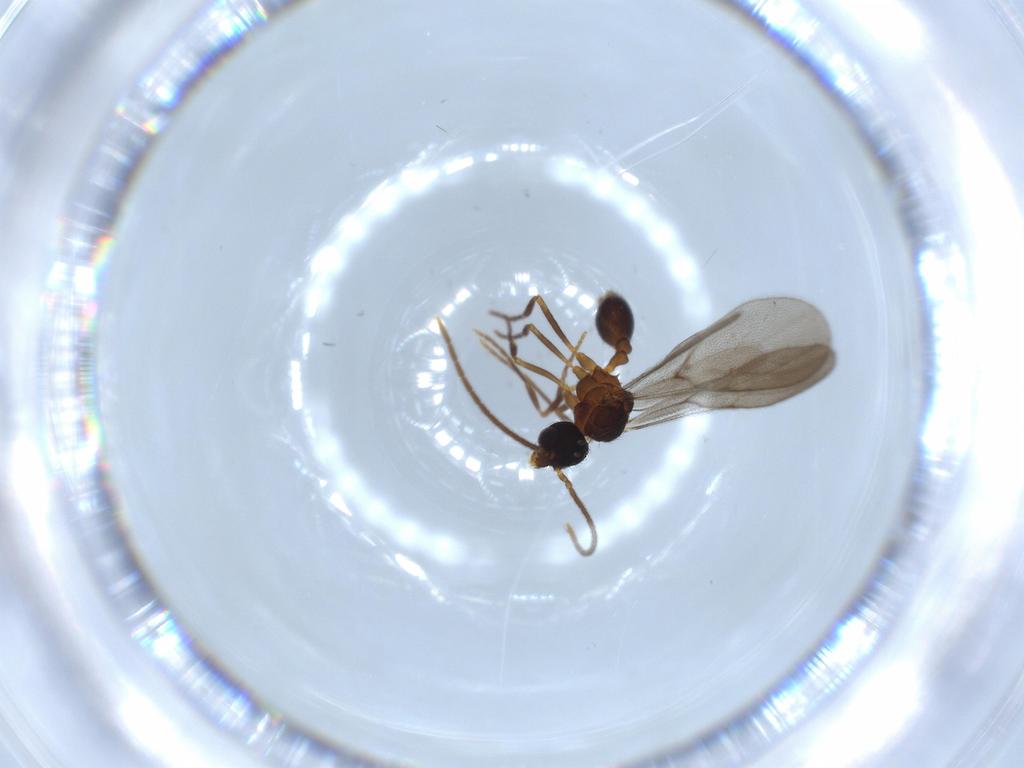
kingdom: Animalia
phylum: Arthropoda
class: Insecta
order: Hymenoptera
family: Formicidae
